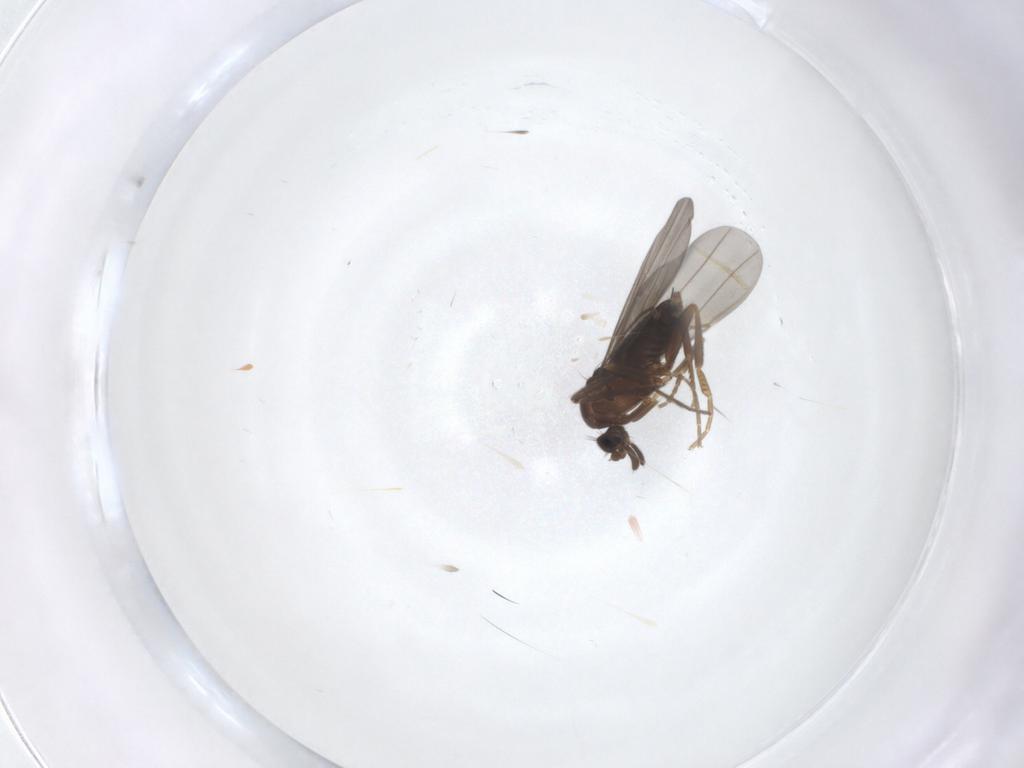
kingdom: Animalia
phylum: Arthropoda
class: Insecta
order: Diptera
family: Chironomidae
